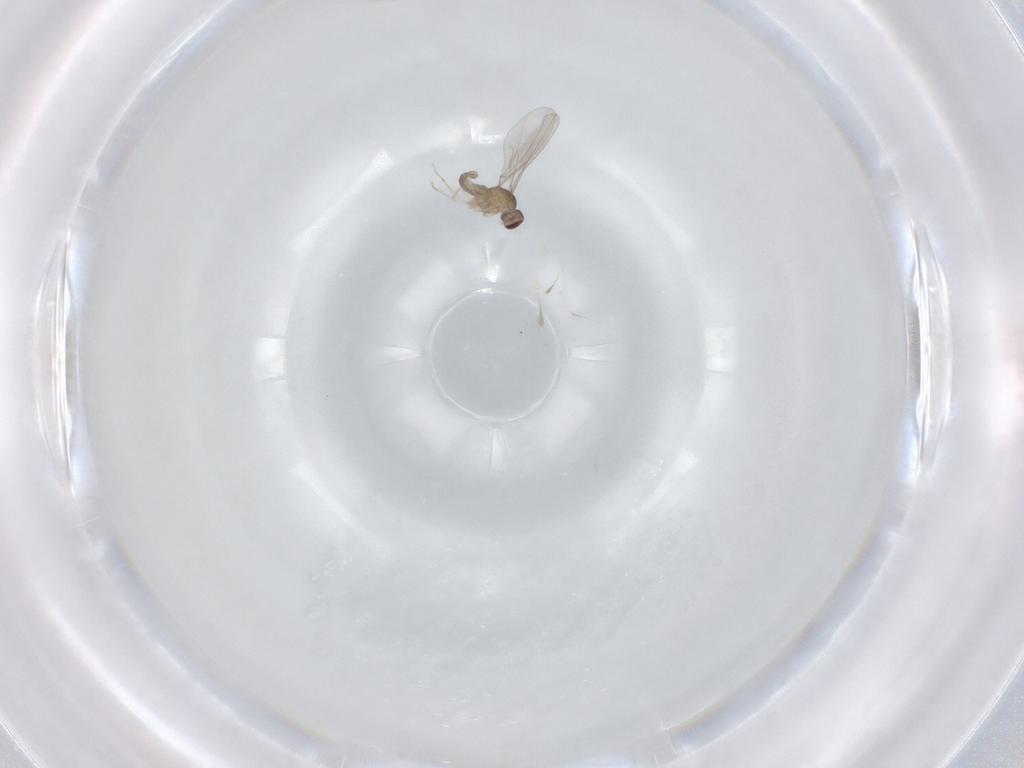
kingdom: Animalia
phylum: Arthropoda
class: Insecta
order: Diptera
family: Cecidomyiidae
